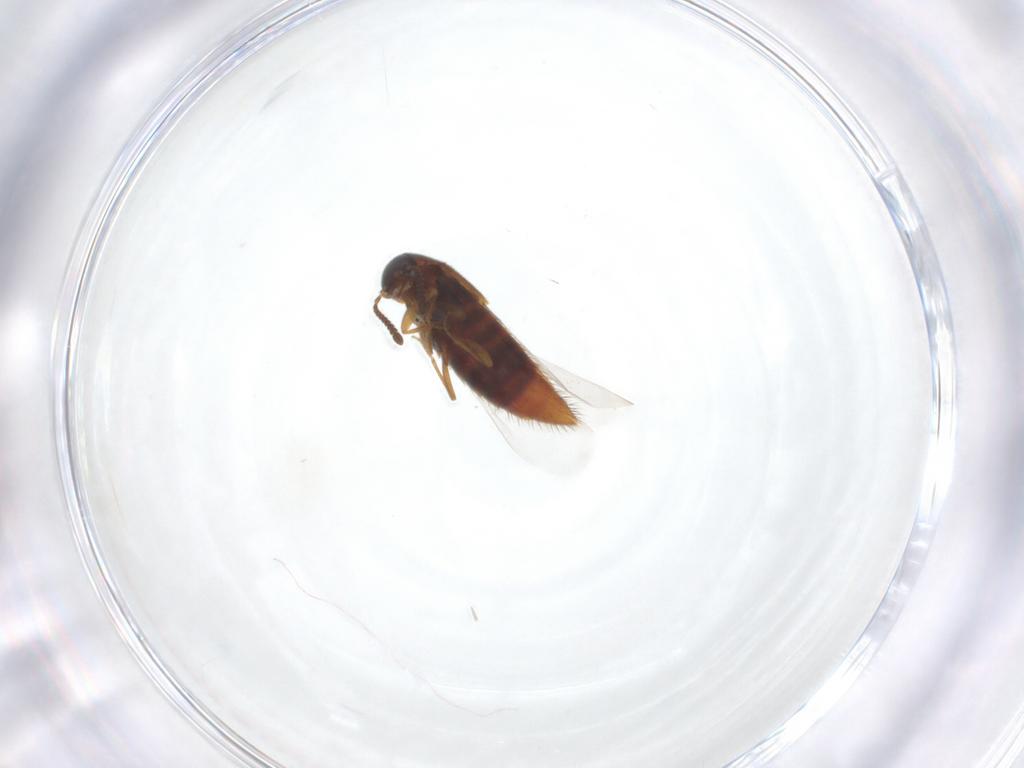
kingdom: Animalia
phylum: Arthropoda
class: Insecta
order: Coleoptera
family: Staphylinidae
